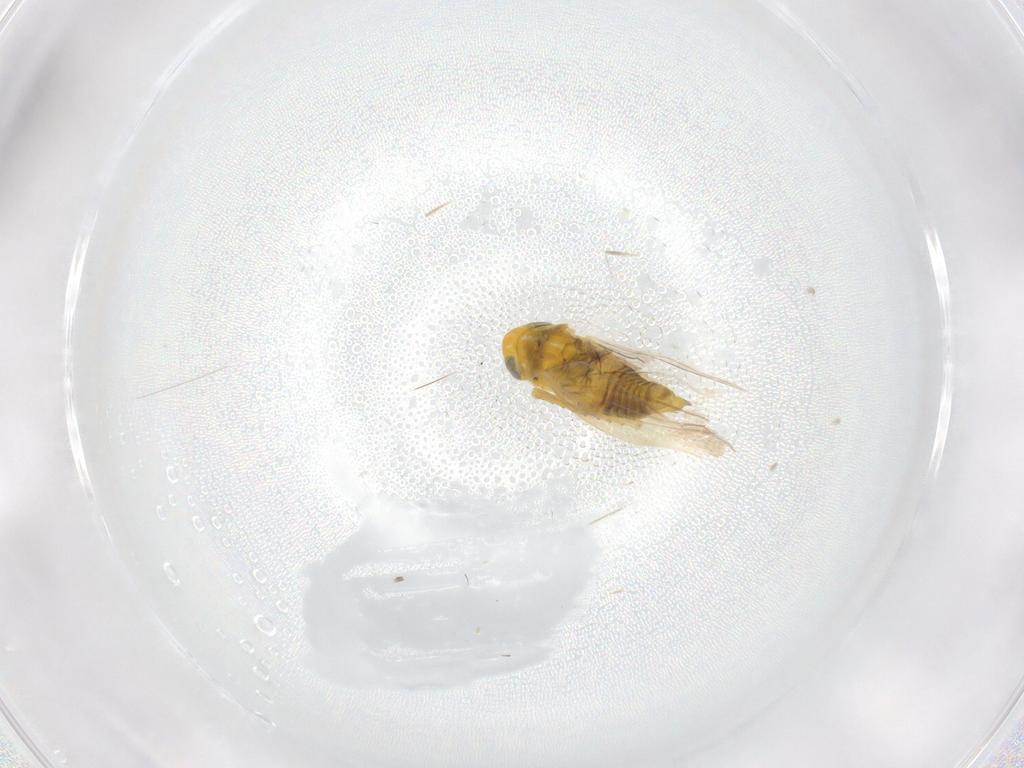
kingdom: Animalia
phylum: Arthropoda
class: Insecta
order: Hemiptera
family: Cicadellidae
